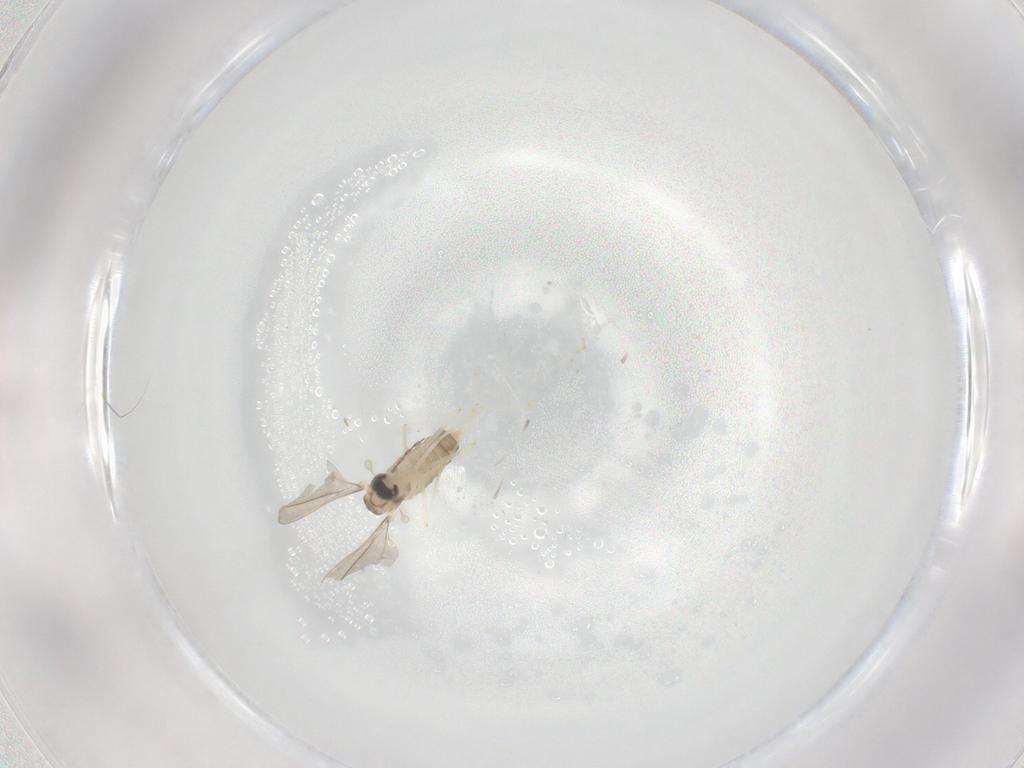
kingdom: Animalia
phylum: Arthropoda
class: Insecta
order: Diptera
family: Cecidomyiidae
